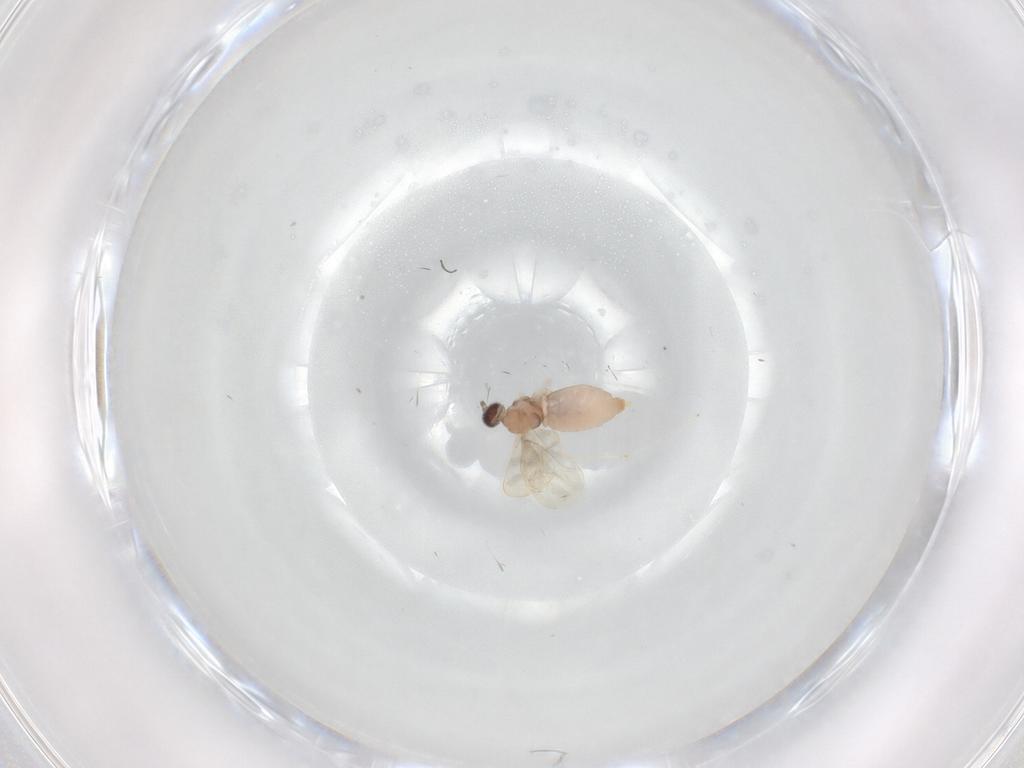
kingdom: Animalia
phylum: Arthropoda
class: Insecta
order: Diptera
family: Cecidomyiidae
